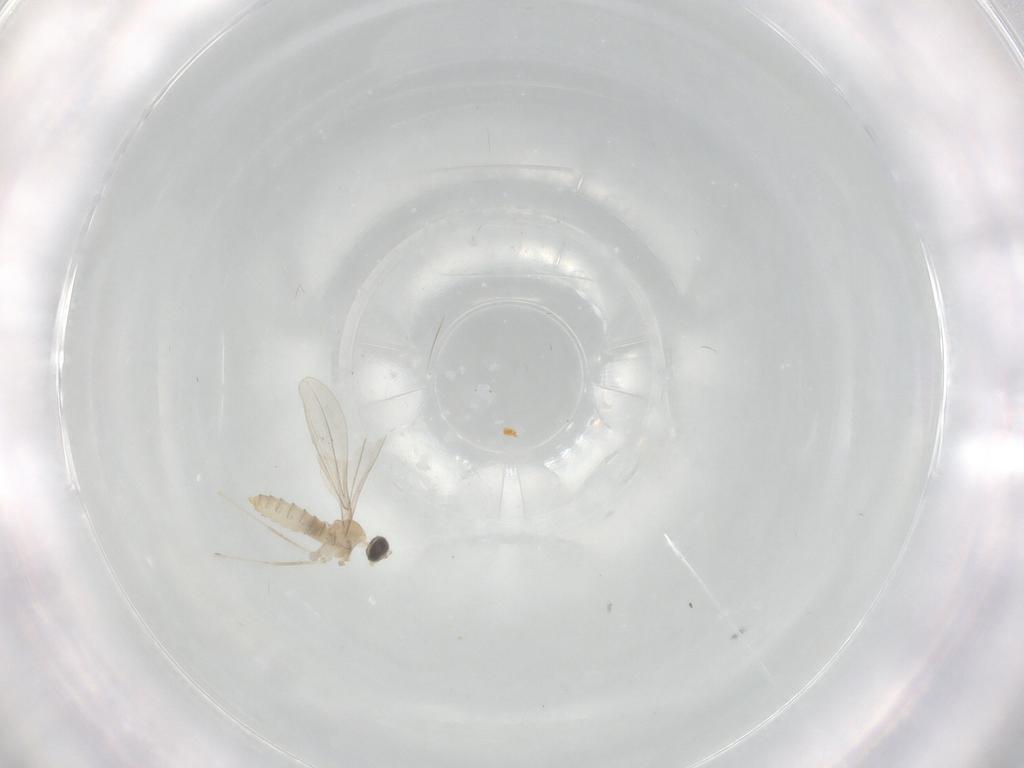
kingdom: Animalia
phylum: Arthropoda
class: Insecta
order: Diptera
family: Cecidomyiidae
